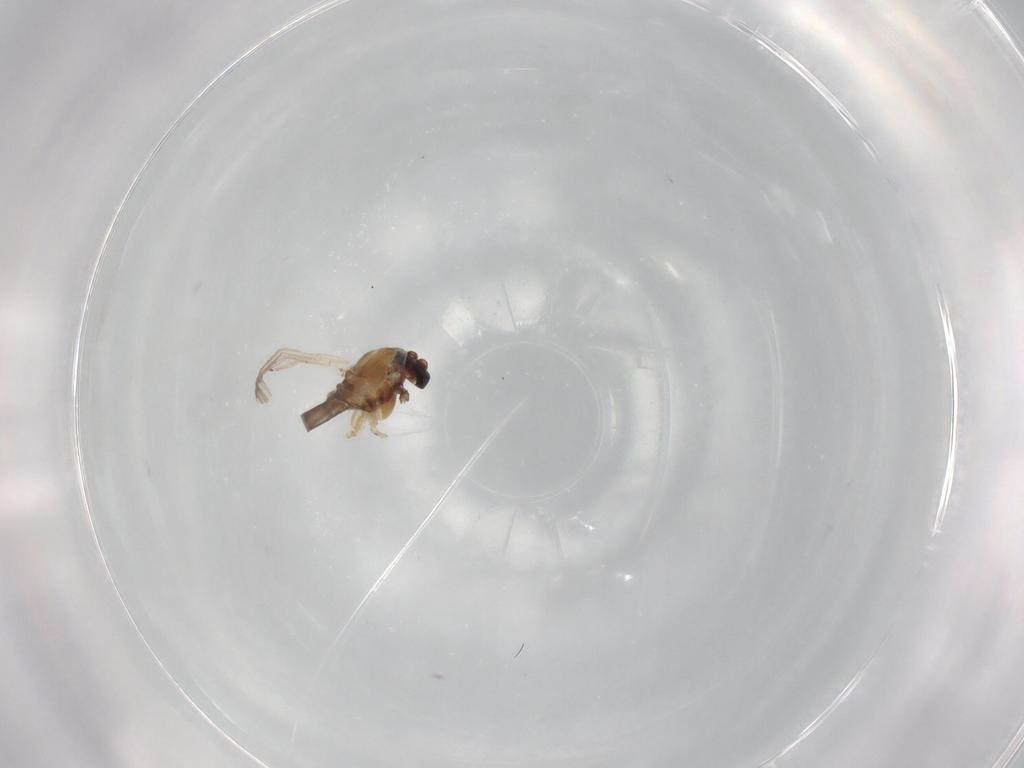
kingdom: Animalia
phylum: Arthropoda
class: Insecta
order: Diptera
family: Chironomidae
